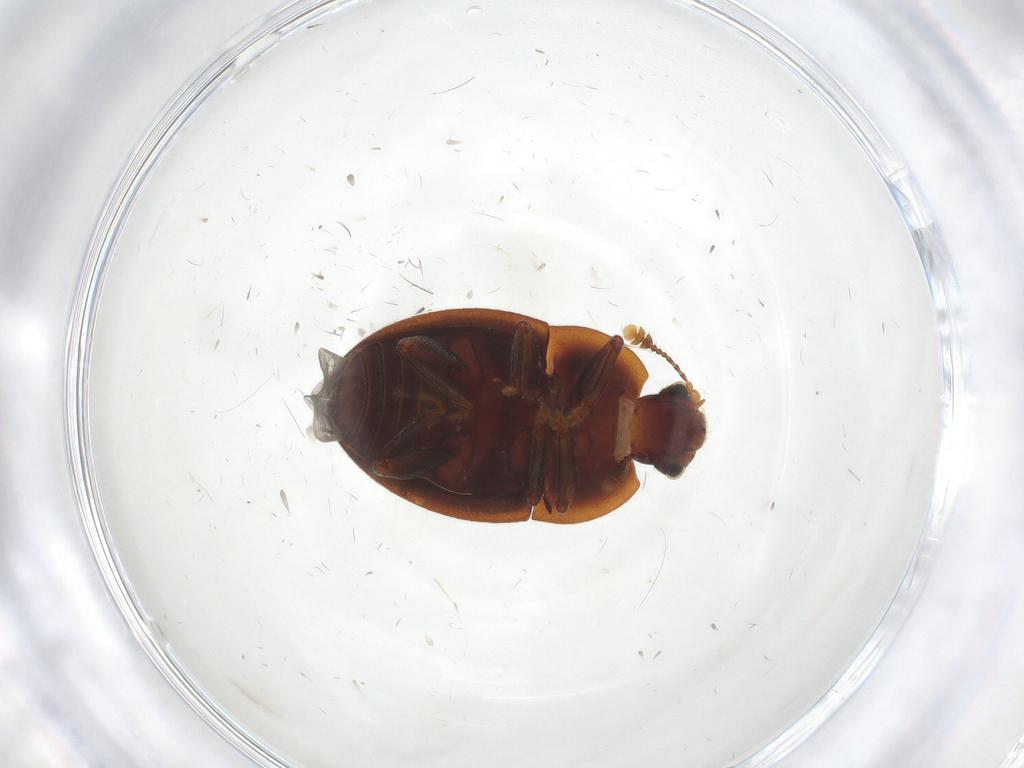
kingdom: Animalia
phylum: Arthropoda
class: Insecta
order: Coleoptera
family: Nitidulidae
